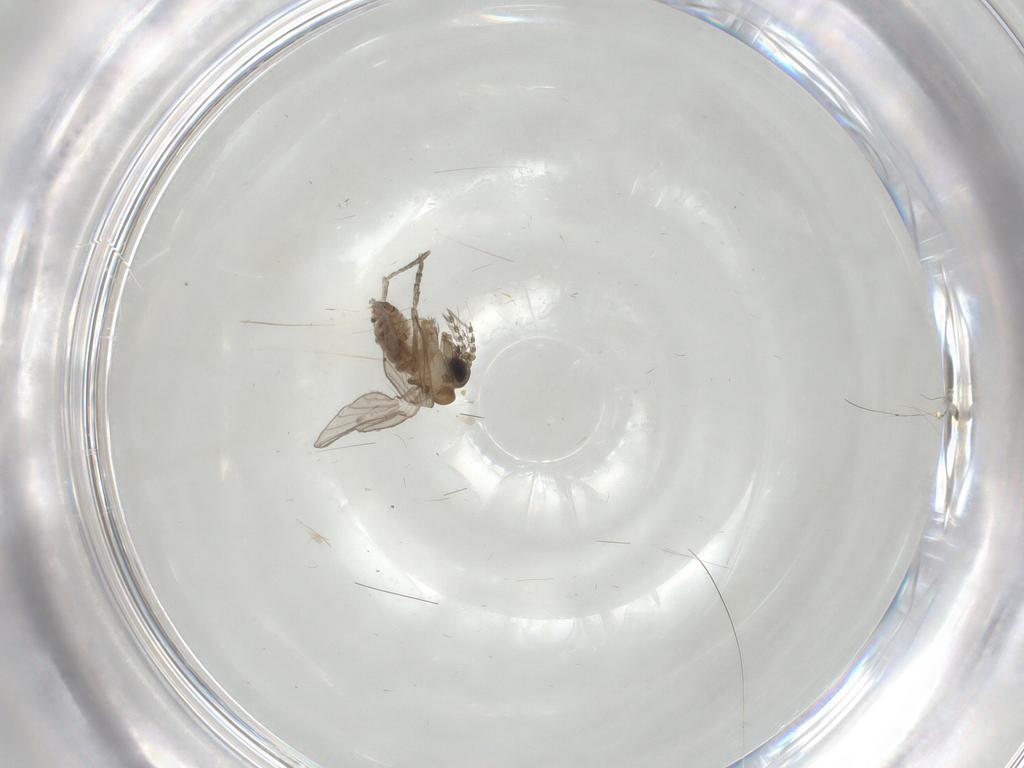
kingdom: Animalia
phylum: Arthropoda
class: Insecta
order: Diptera
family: Psychodidae
